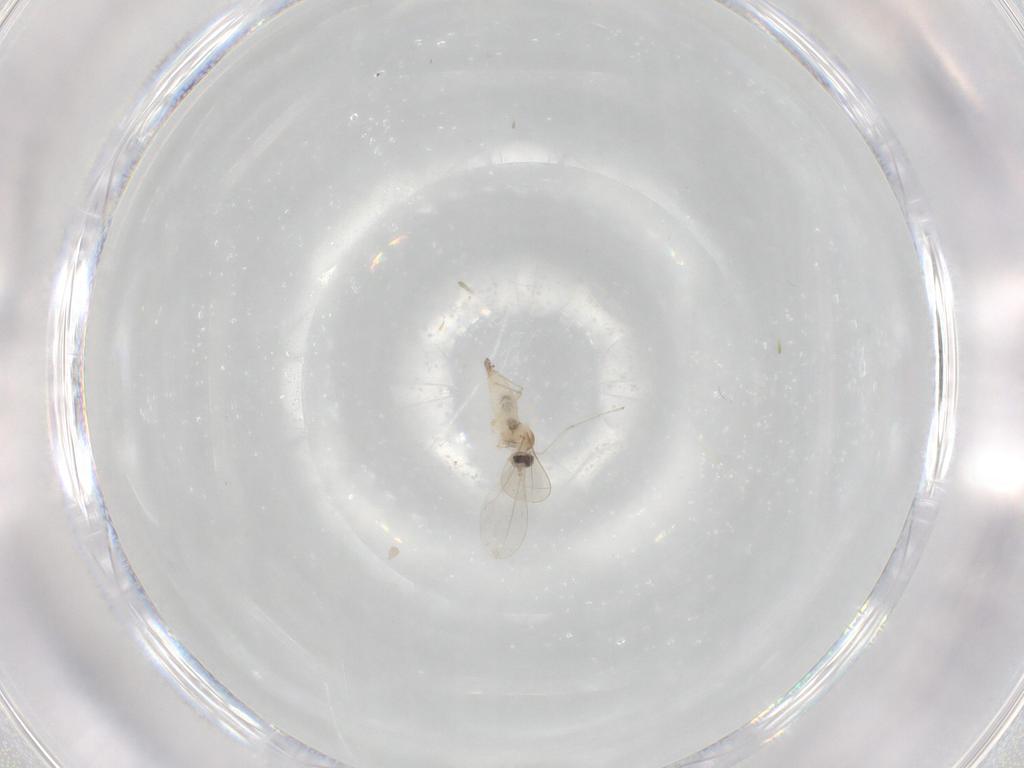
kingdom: Animalia
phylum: Arthropoda
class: Insecta
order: Diptera
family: Cecidomyiidae
